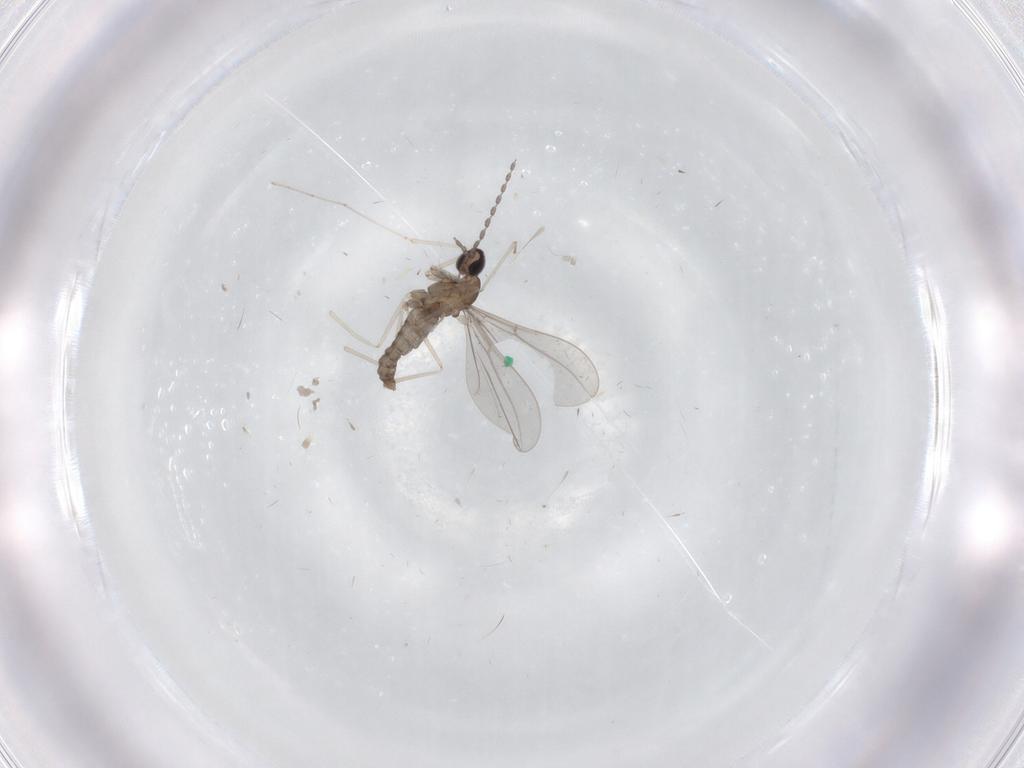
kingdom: Animalia
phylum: Arthropoda
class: Insecta
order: Diptera
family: Cecidomyiidae
